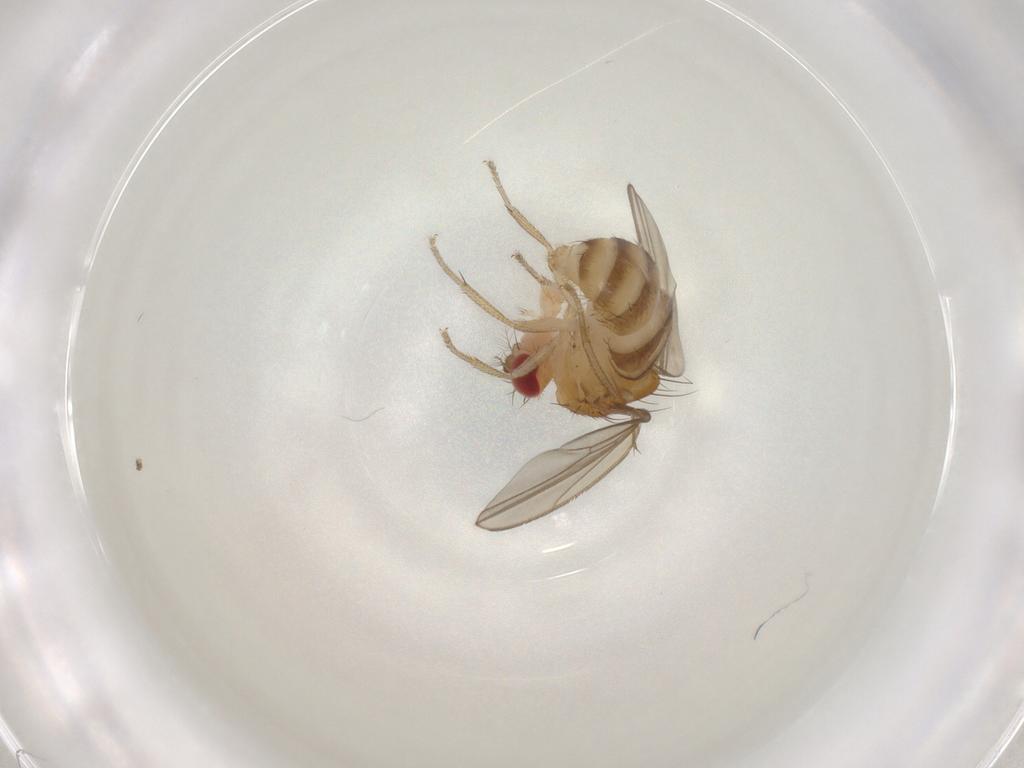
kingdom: Animalia
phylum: Arthropoda
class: Insecta
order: Diptera
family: Drosophilidae
